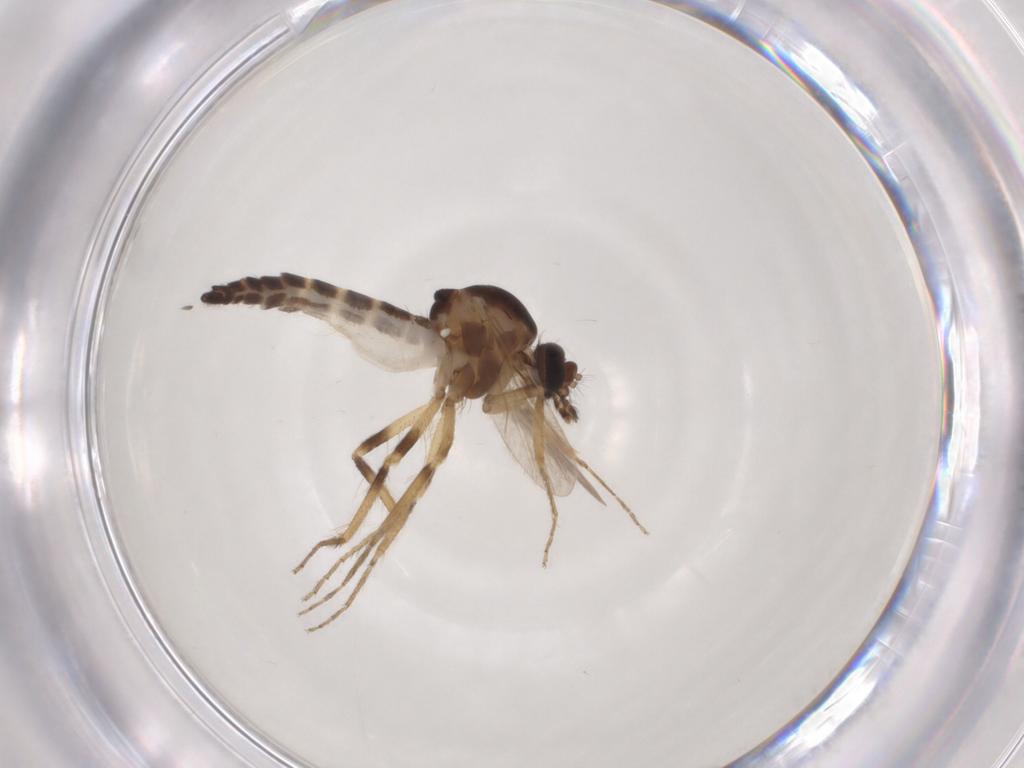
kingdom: Animalia
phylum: Arthropoda
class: Insecta
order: Diptera
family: Ceratopogonidae
